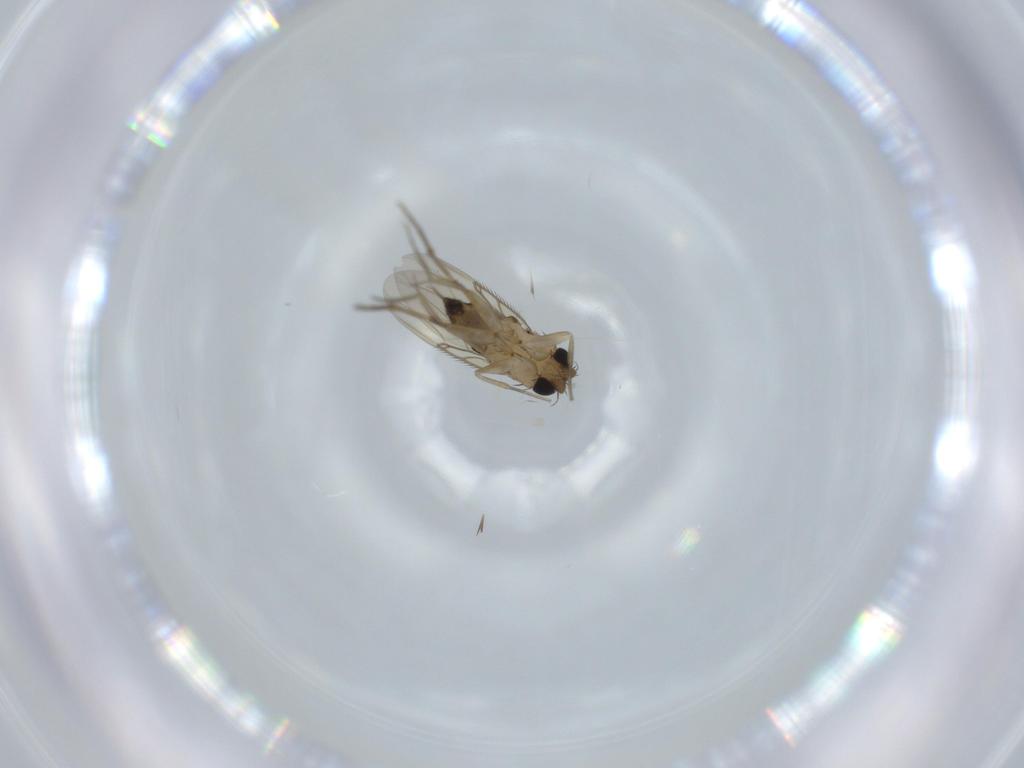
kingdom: Animalia
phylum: Arthropoda
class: Insecta
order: Diptera
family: Phoridae
